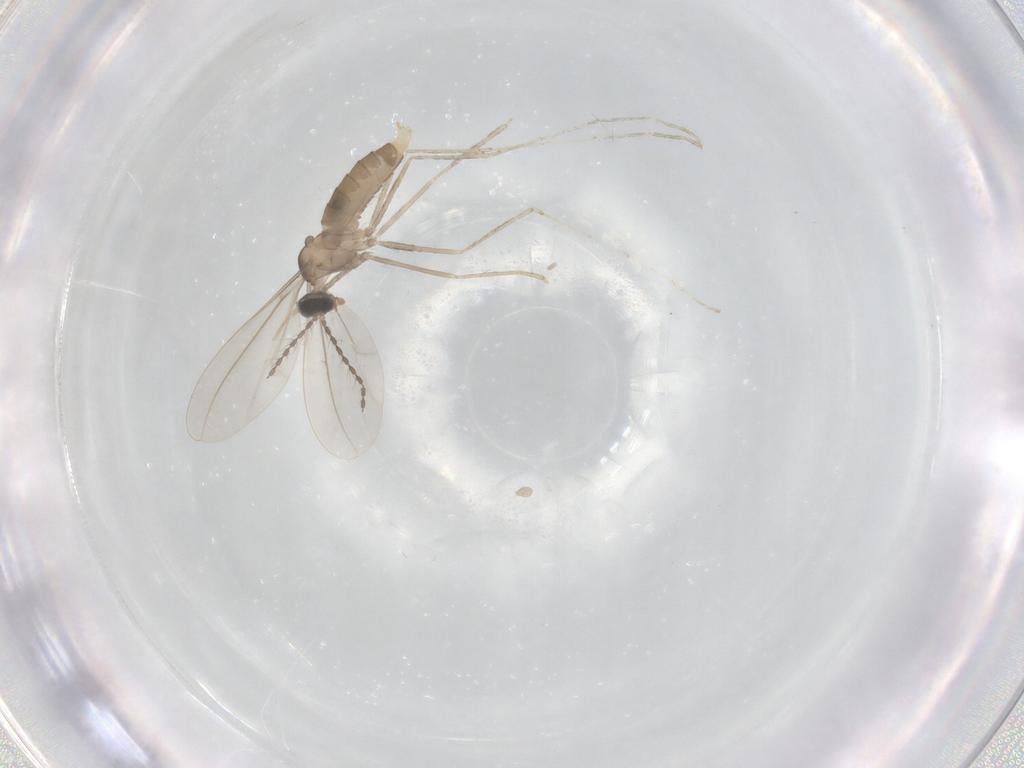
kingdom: Animalia
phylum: Arthropoda
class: Insecta
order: Diptera
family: Cecidomyiidae
